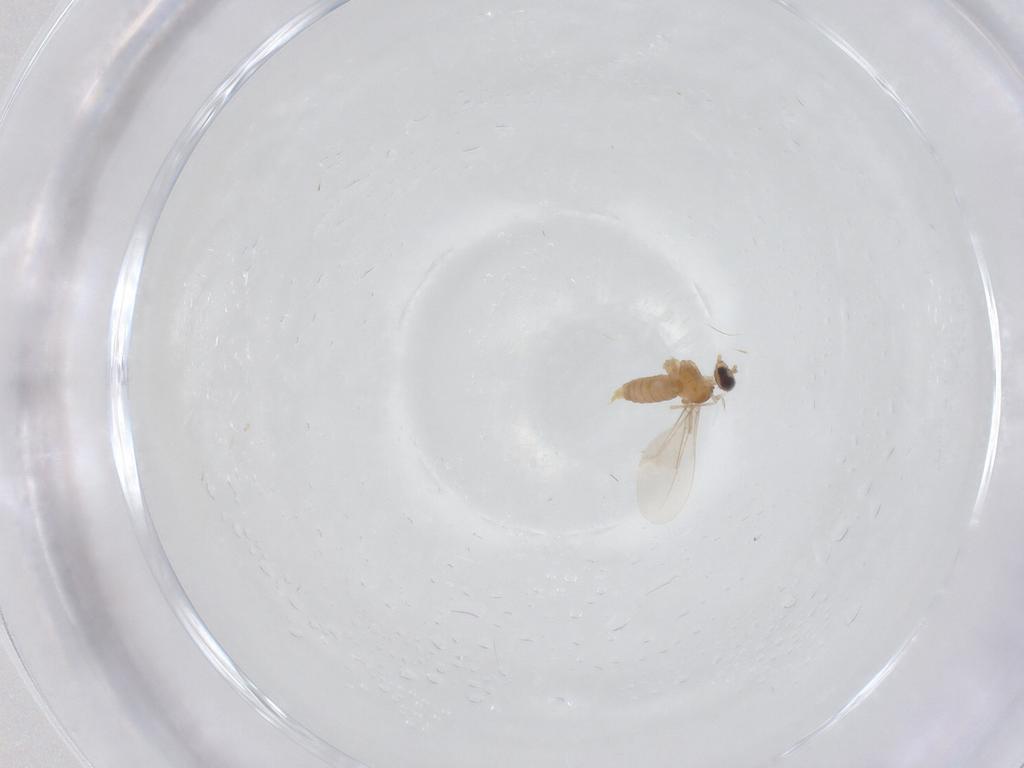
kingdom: Animalia
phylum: Arthropoda
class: Insecta
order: Diptera
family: Cecidomyiidae
